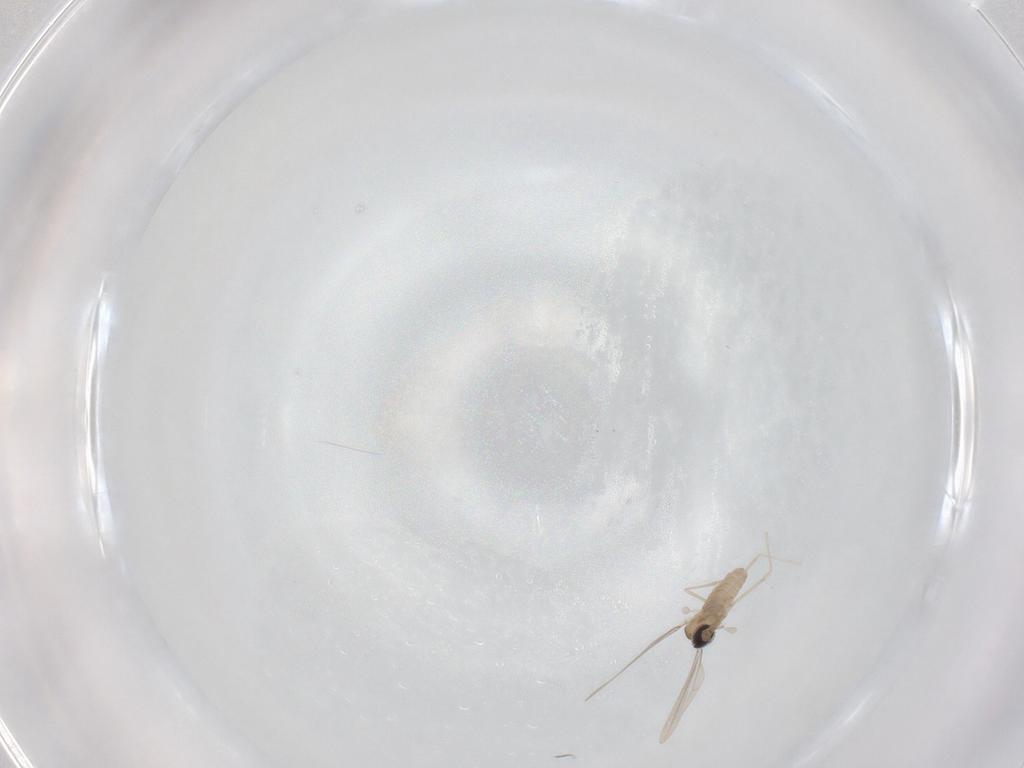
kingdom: Animalia
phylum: Arthropoda
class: Insecta
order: Diptera
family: Cecidomyiidae
